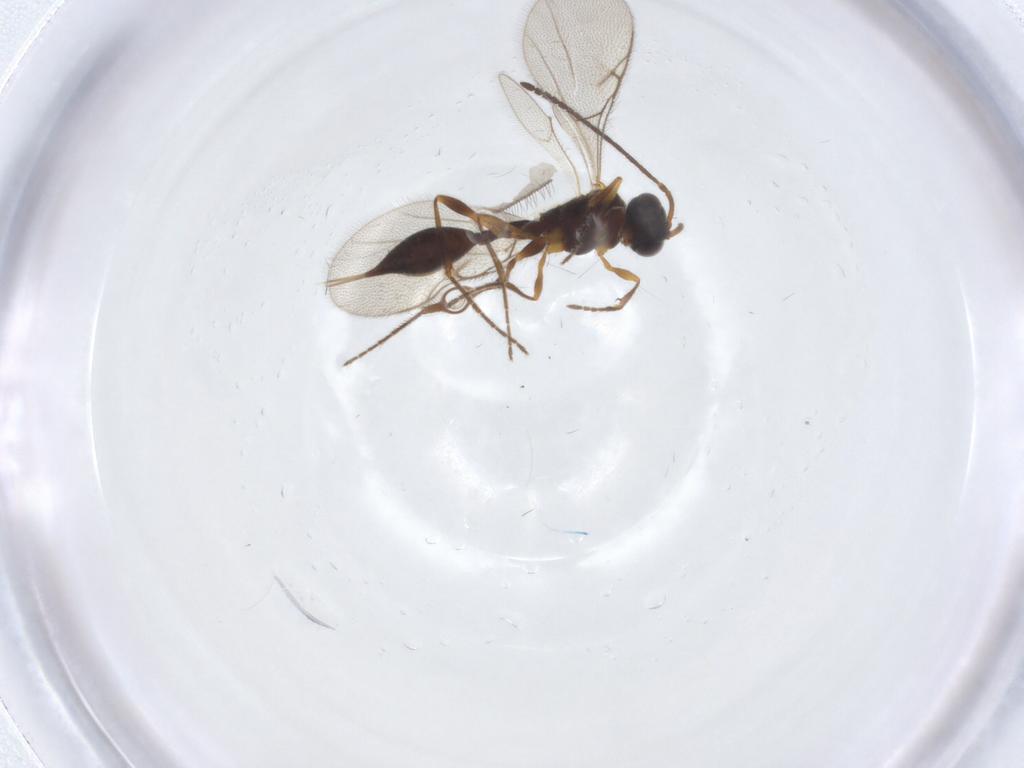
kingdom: Animalia
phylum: Arthropoda
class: Insecta
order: Hymenoptera
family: Diapriidae
